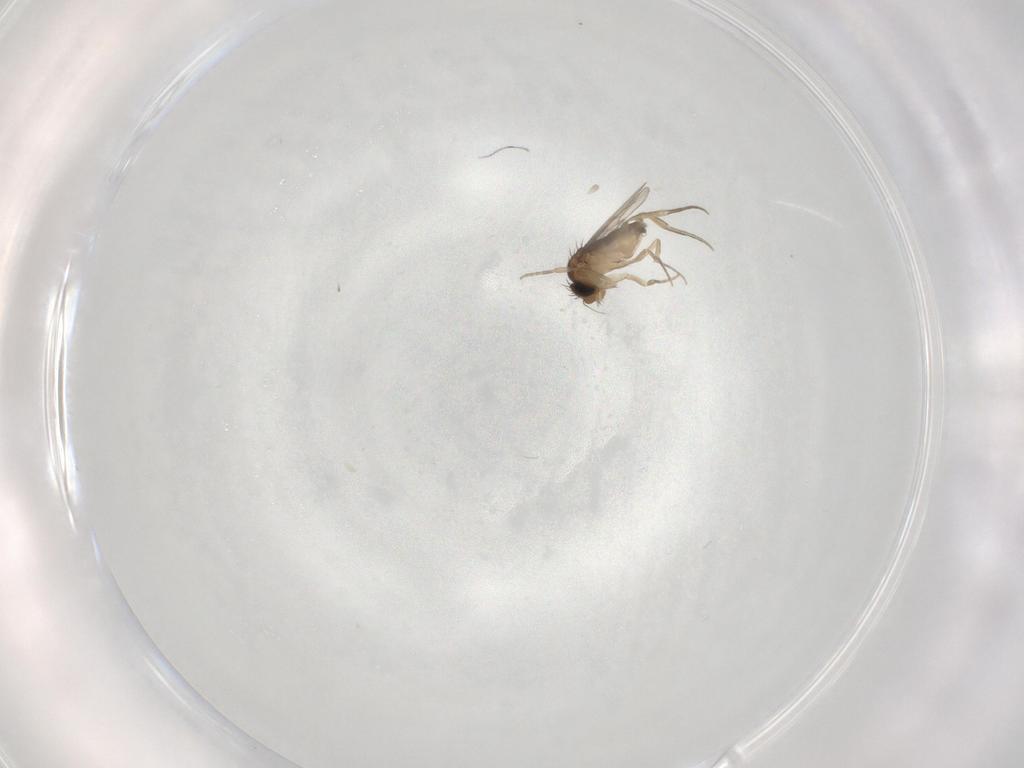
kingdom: Animalia
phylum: Arthropoda
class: Insecta
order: Diptera
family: Phoridae
